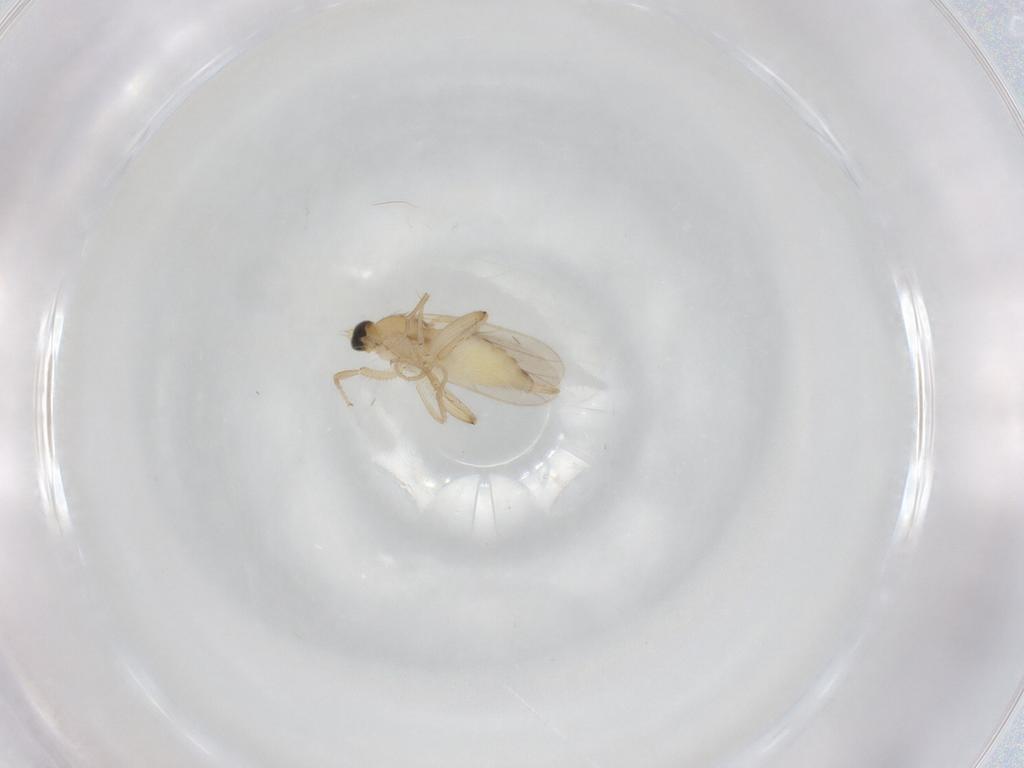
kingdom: Animalia
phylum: Arthropoda
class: Insecta
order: Diptera
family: Hybotidae
